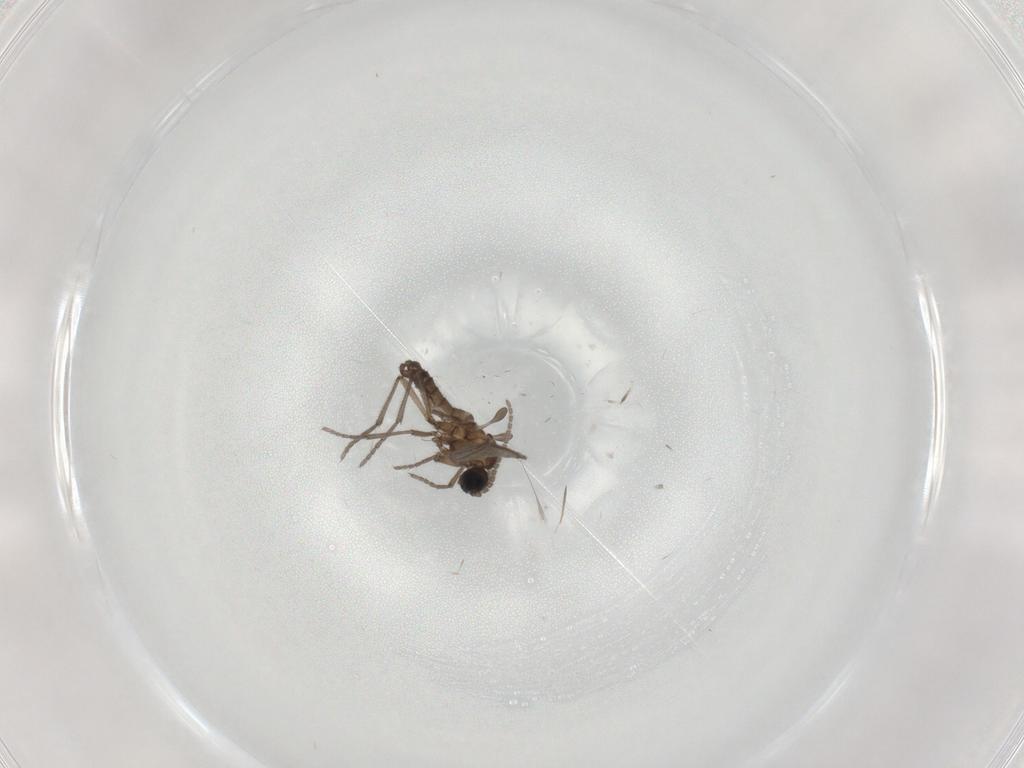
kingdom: Animalia
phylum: Arthropoda
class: Insecta
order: Diptera
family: Sciaridae
